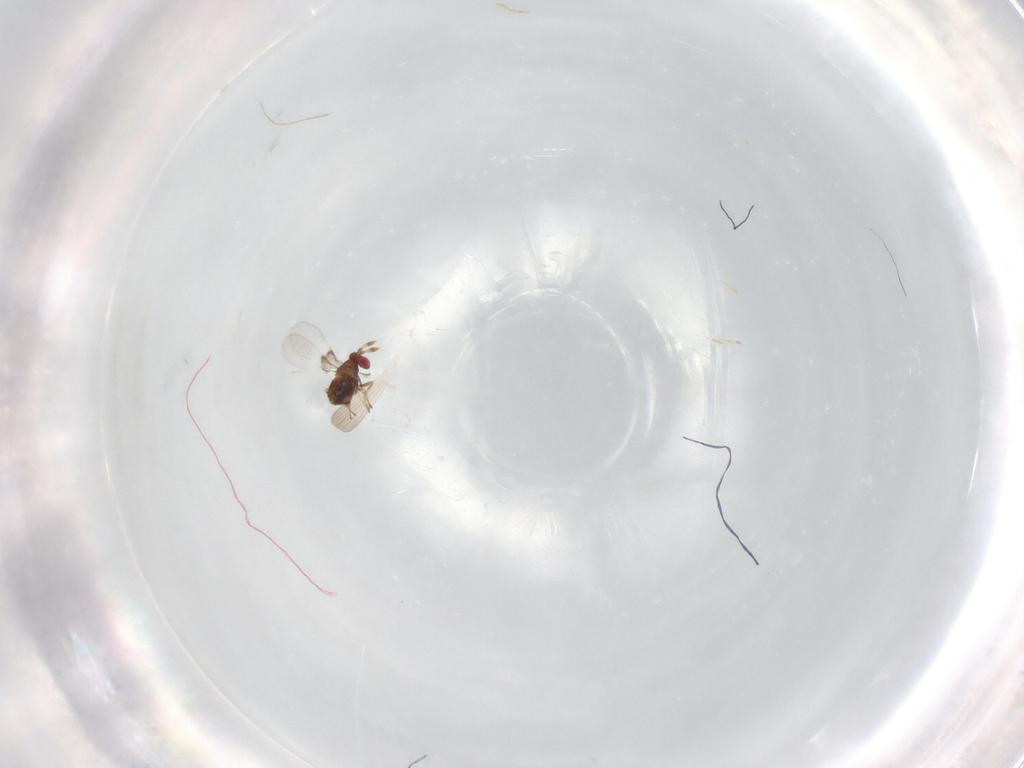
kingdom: Animalia
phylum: Arthropoda
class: Insecta
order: Hymenoptera
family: Trichogrammatidae
